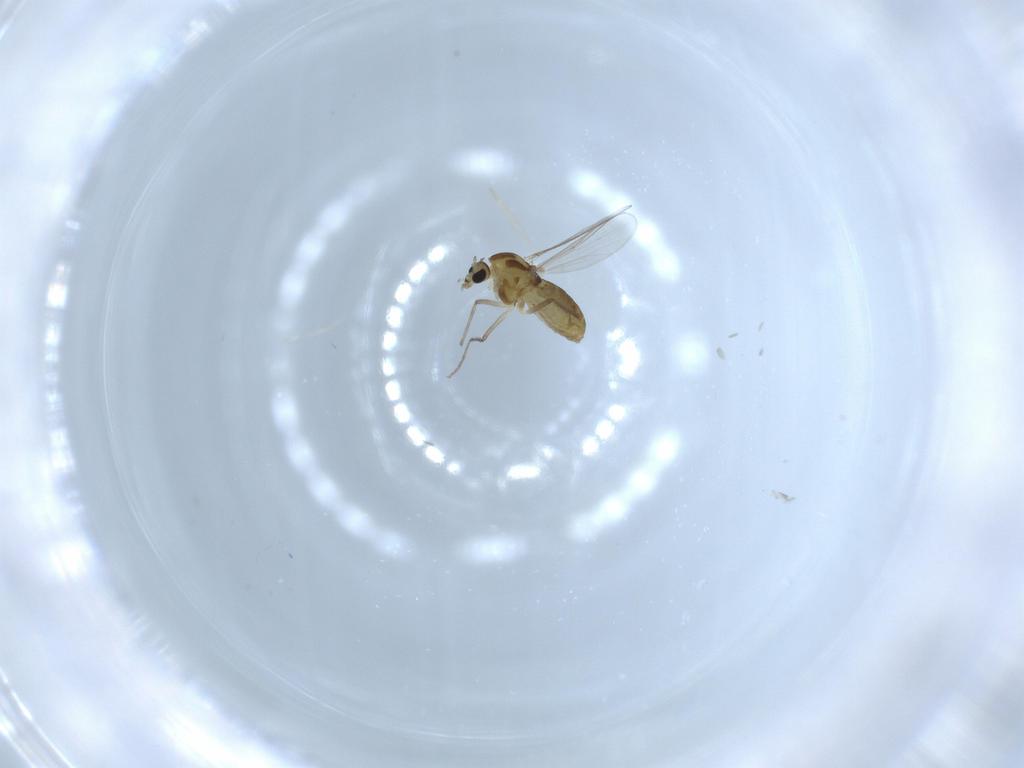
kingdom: Animalia
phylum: Arthropoda
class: Insecta
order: Diptera
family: Chironomidae
